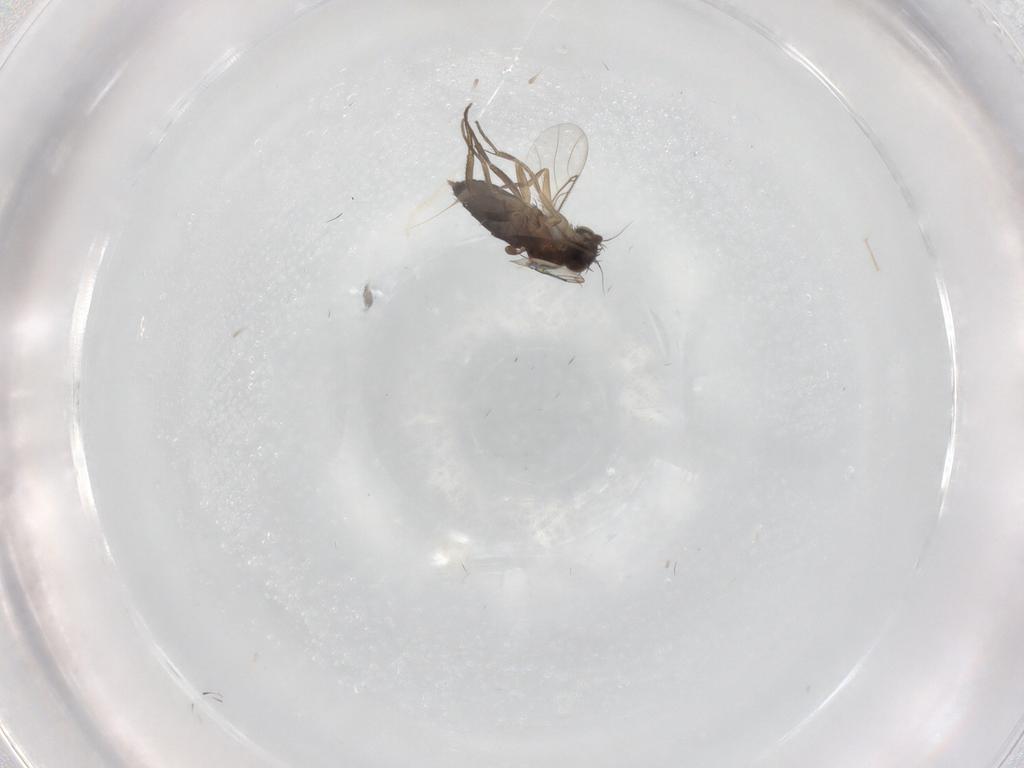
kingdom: Animalia
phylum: Arthropoda
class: Insecta
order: Diptera
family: Phoridae
